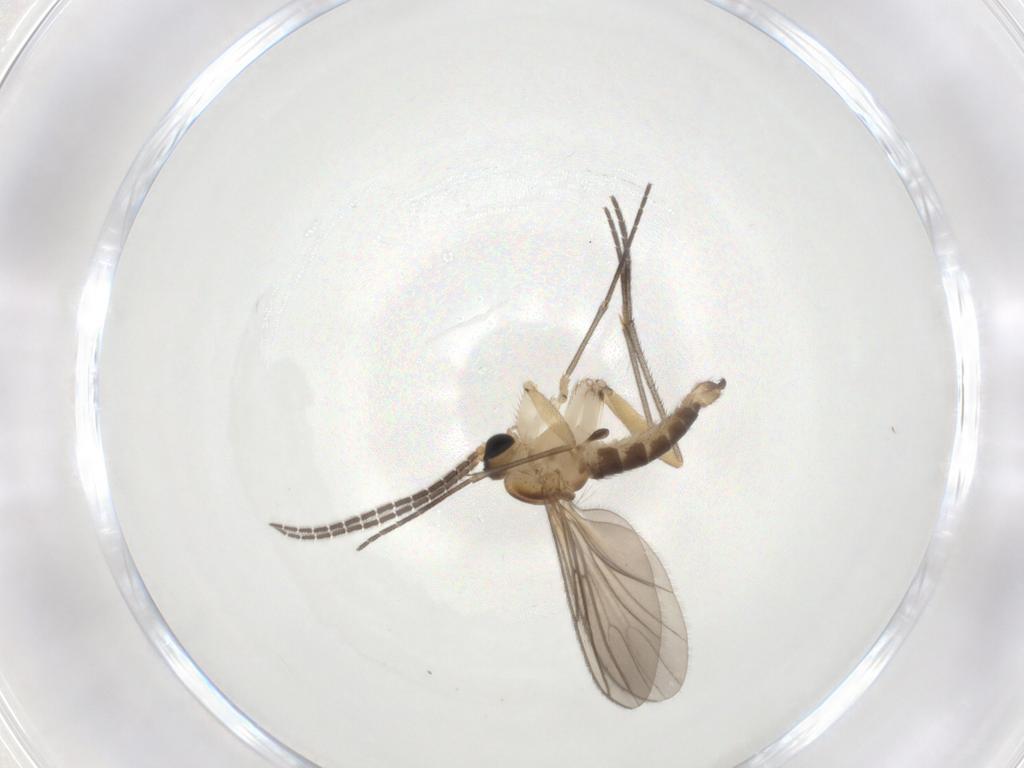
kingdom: Animalia
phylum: Arthropoda
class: Insecta
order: Diptera
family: Sciaridae
